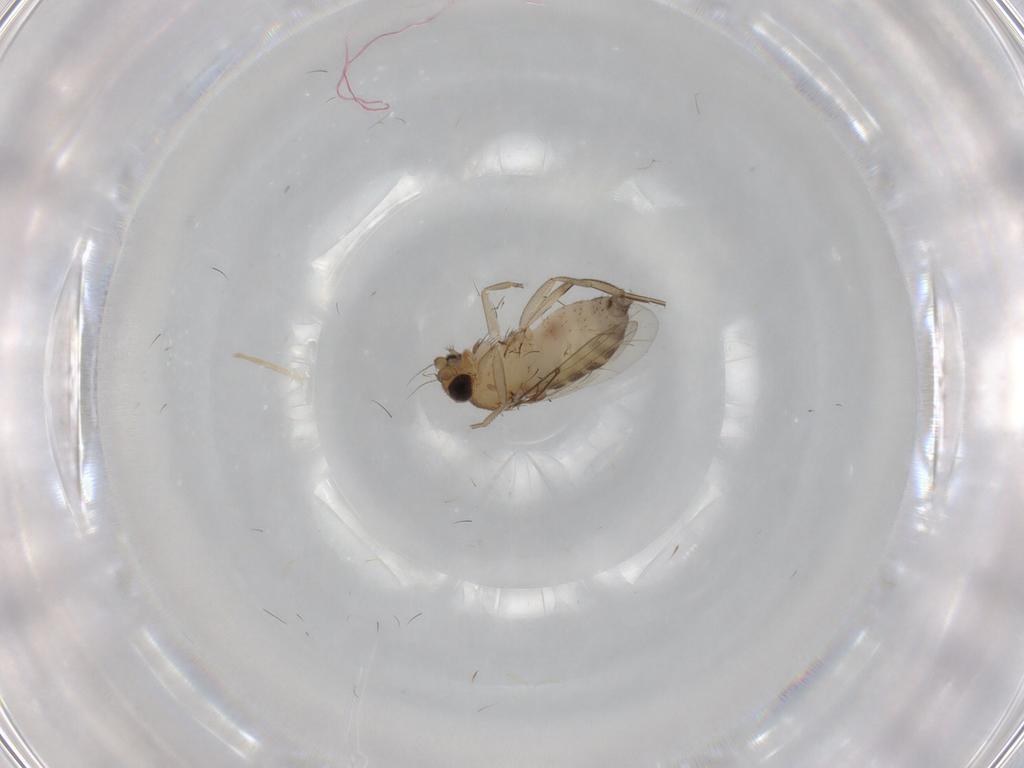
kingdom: Animalia
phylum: Arthropoda
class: Insecta
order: Diptera
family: Phoridae
